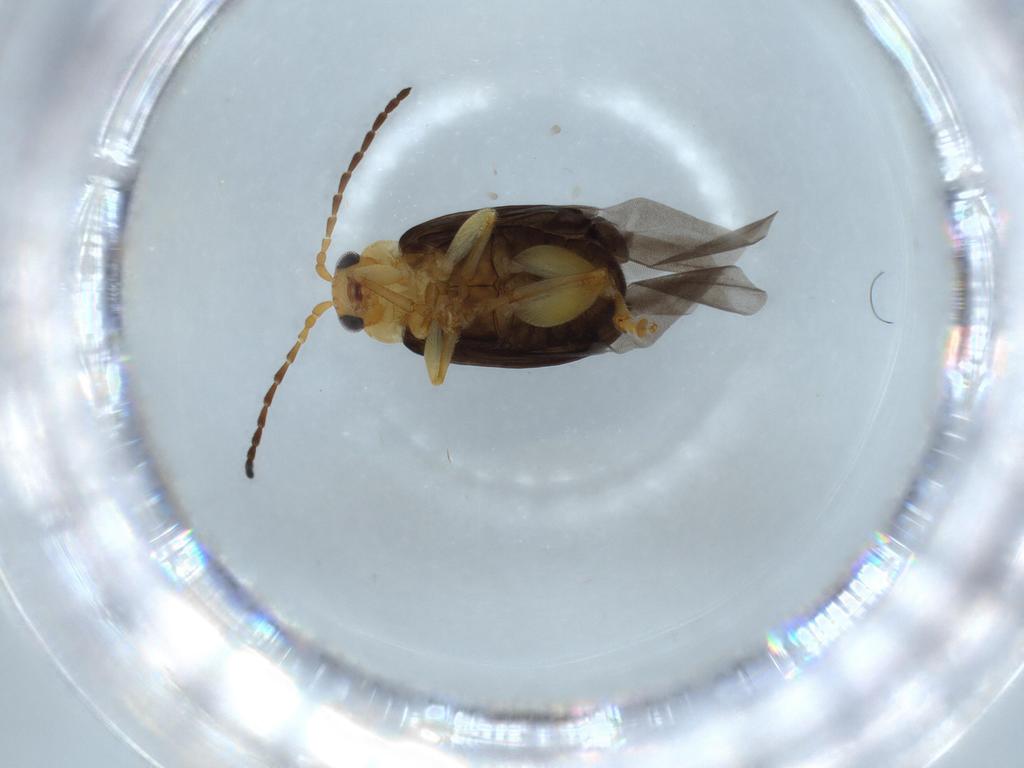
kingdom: Animalia
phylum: Arthropoda
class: Insecta
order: Coleoptera
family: Chrysomelidae
